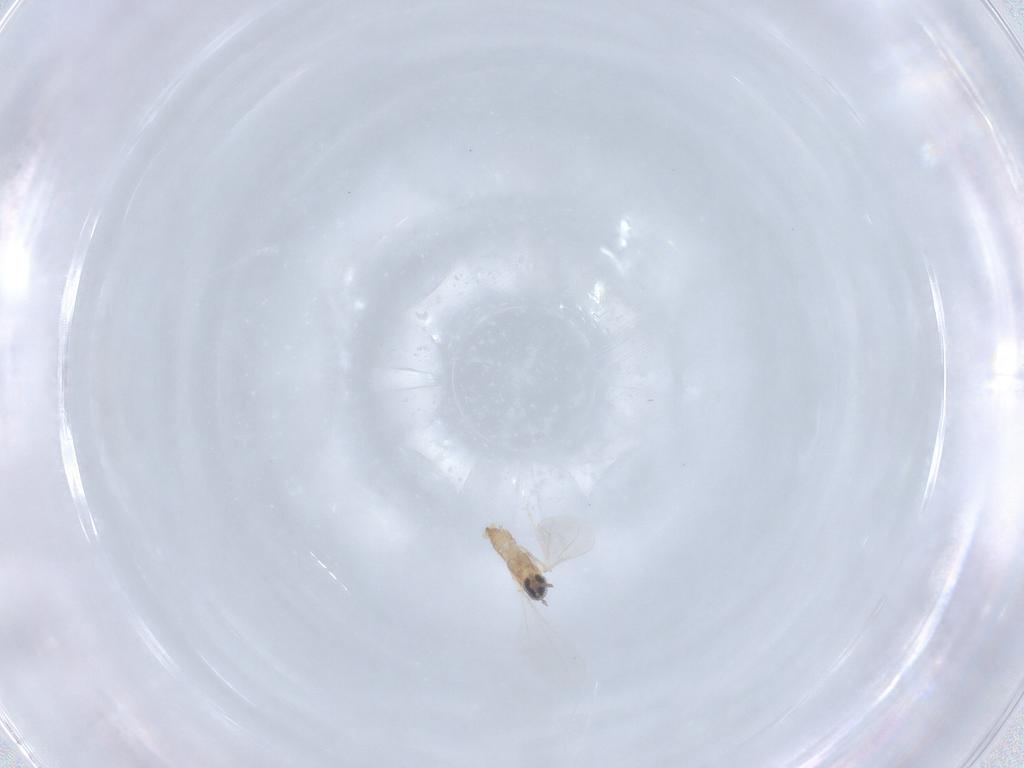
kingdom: Animalia
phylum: Arthropoda
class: Insecta
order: Diptera
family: Cecidomyiidae
